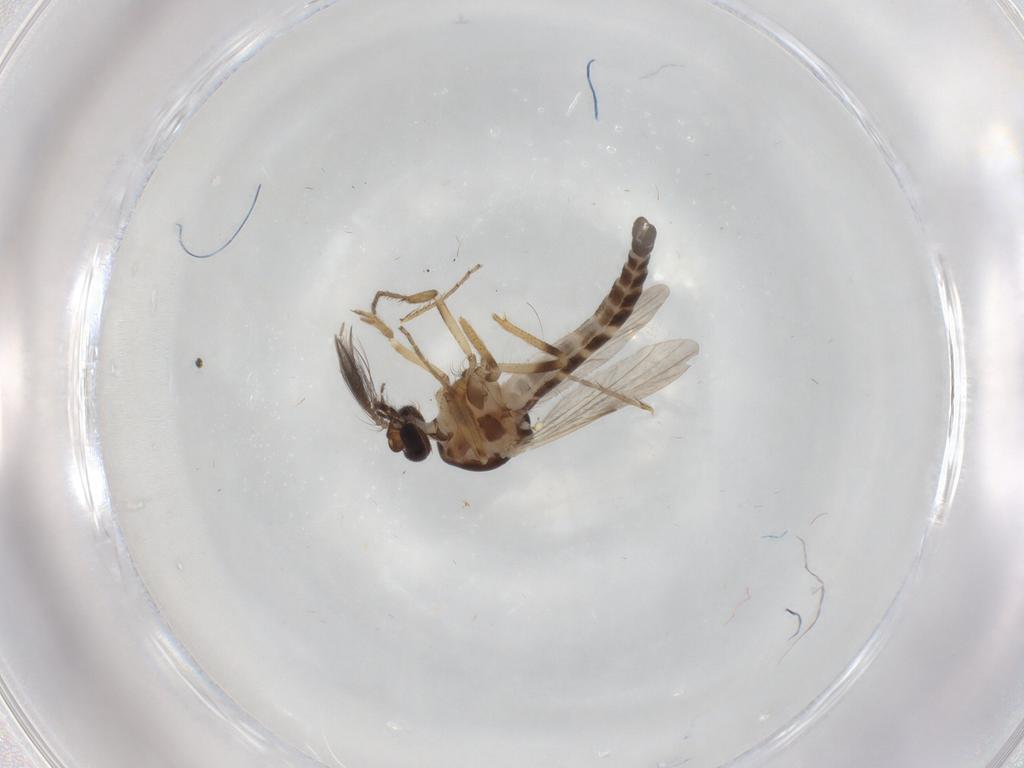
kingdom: Animalia
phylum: Arthropoda
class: Insecta
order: Diptera
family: Ceratopogonidae
